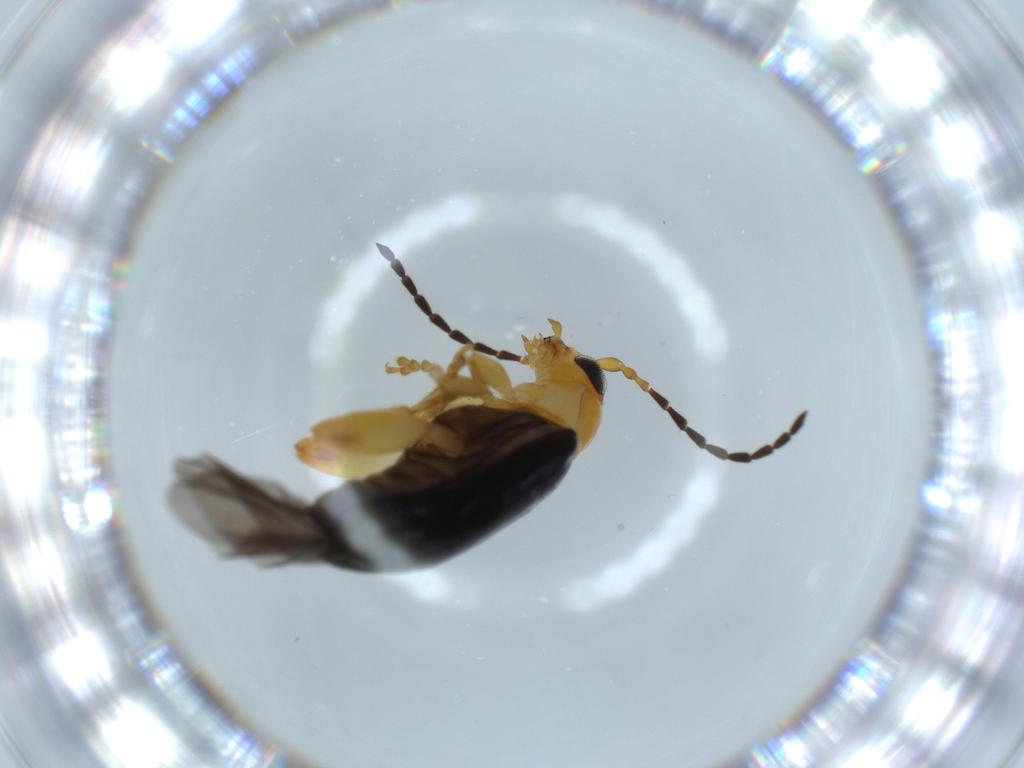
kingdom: Animalia
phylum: Arthropoda
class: Insecta
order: Coleoptera
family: Chrysomelidae
